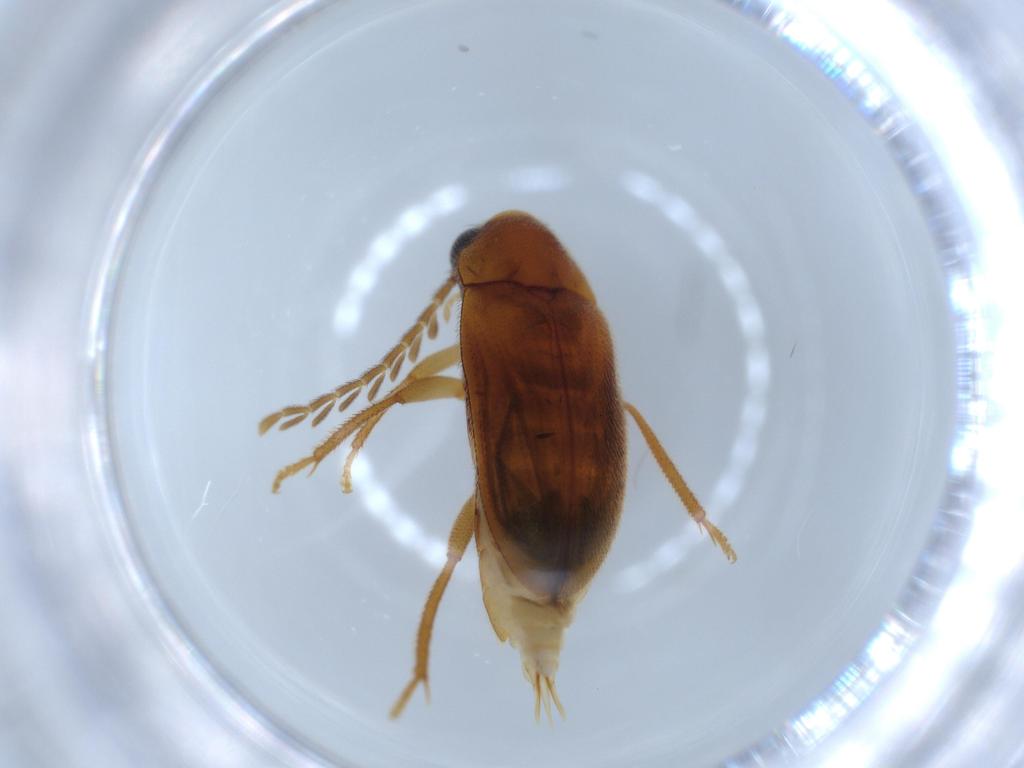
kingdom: Animalia
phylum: Arthropoda
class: Insecta
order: Coleoptera
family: Ptilodactylidae
